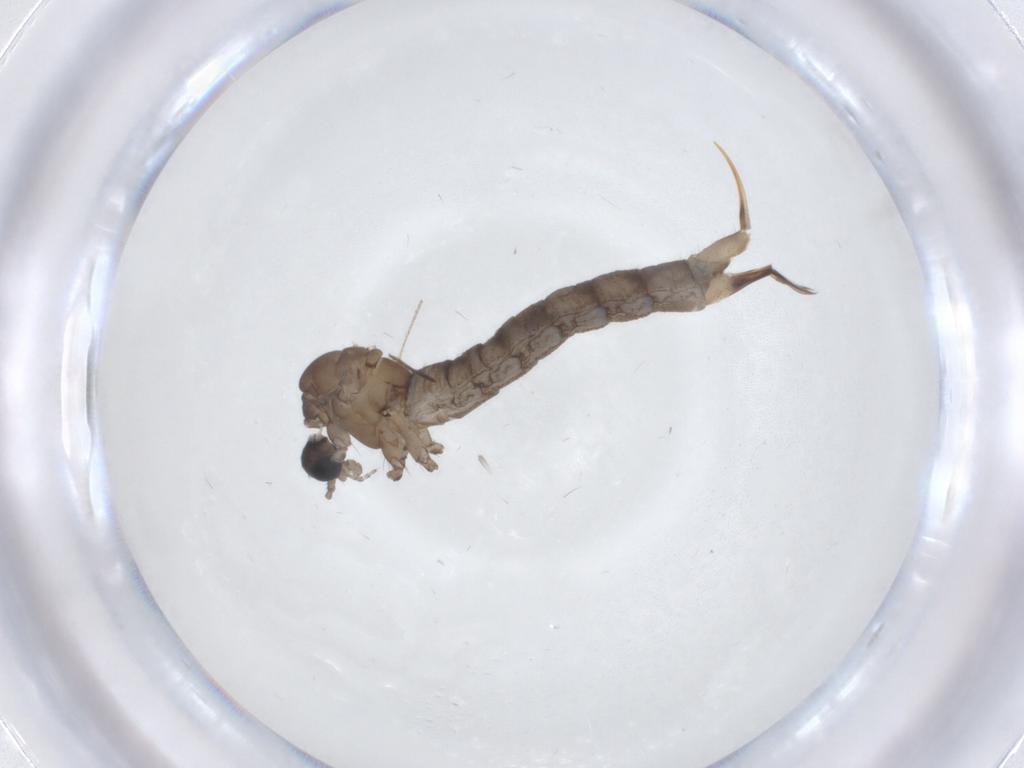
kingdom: Animalia
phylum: Arthropoda
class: Insecta
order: Diptera
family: Limoniidae
